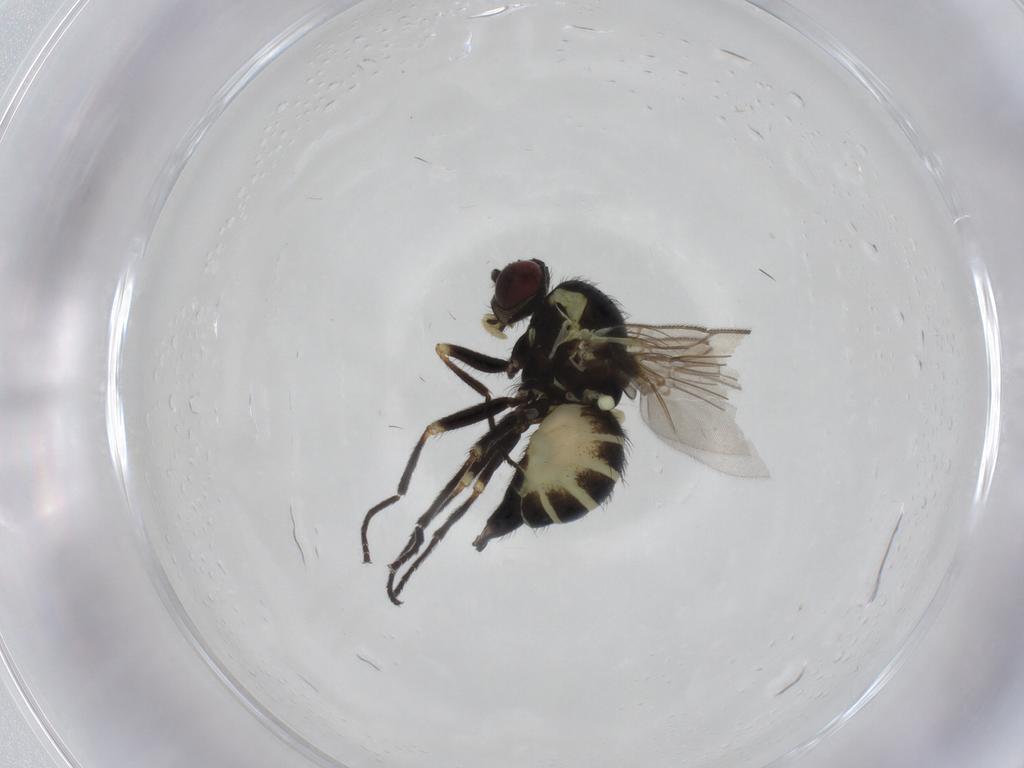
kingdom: Animalia
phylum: Arthropoda
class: Insecta
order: Diptera
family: Agromyzidae
